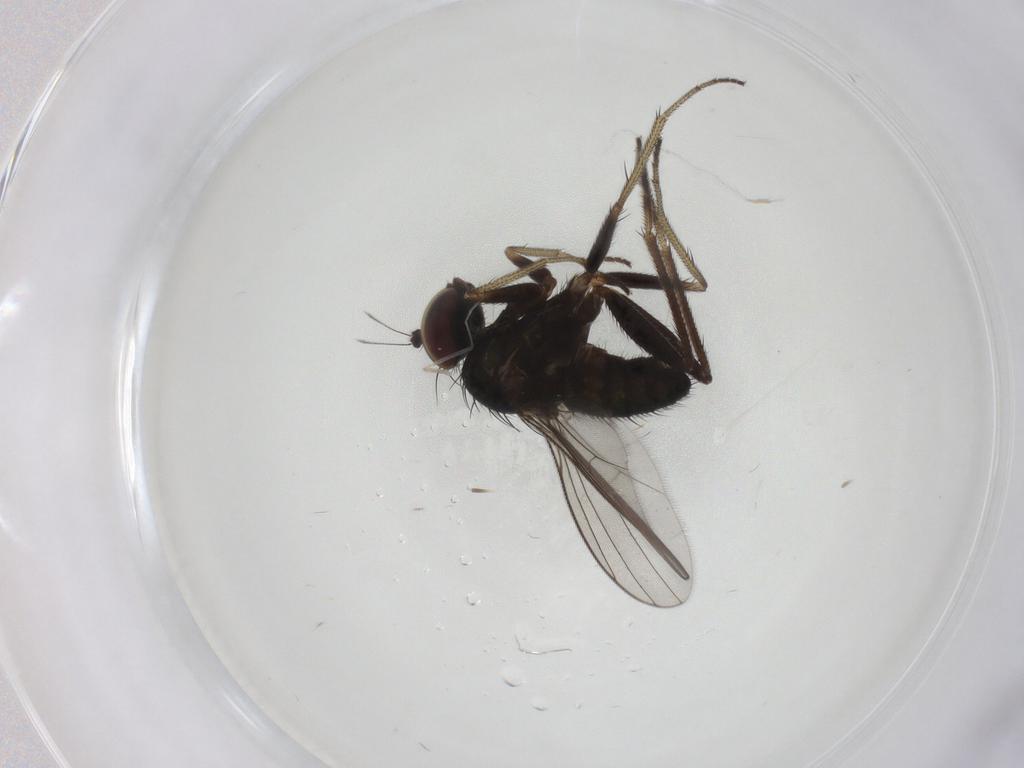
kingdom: Animalia
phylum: Arthropoda
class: Insecta
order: Diptera
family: Dolichopodidae
